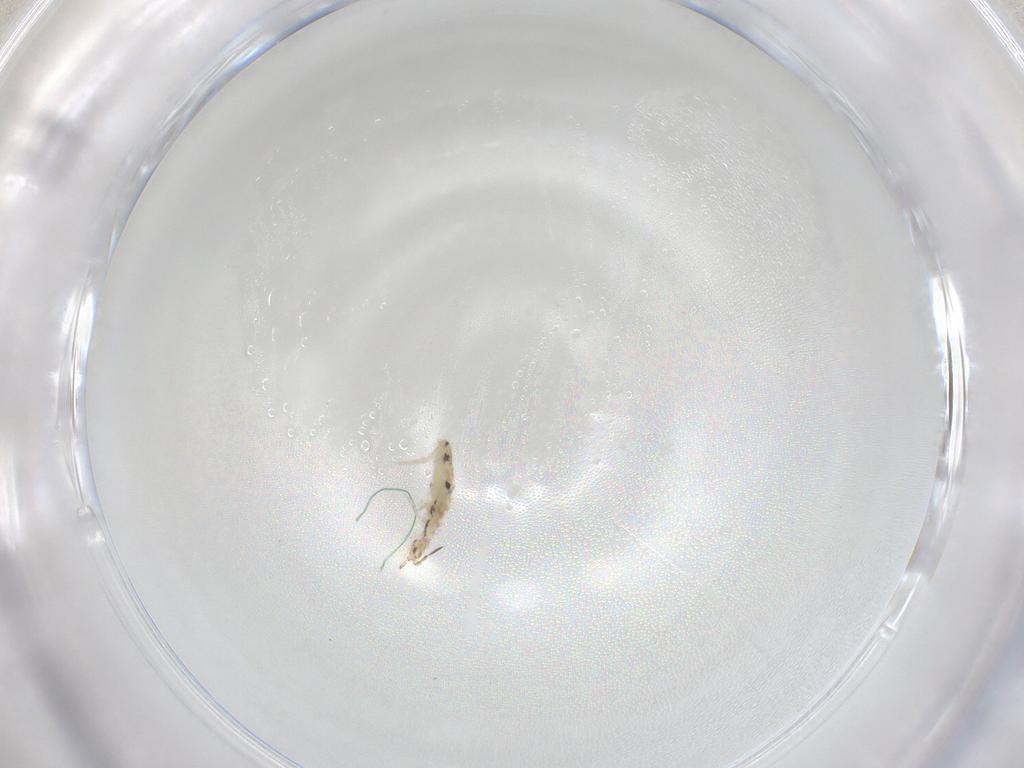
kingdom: Animalia
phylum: Arthropoda
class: Collembola
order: Entomobryomorpha
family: Entomobryidae
